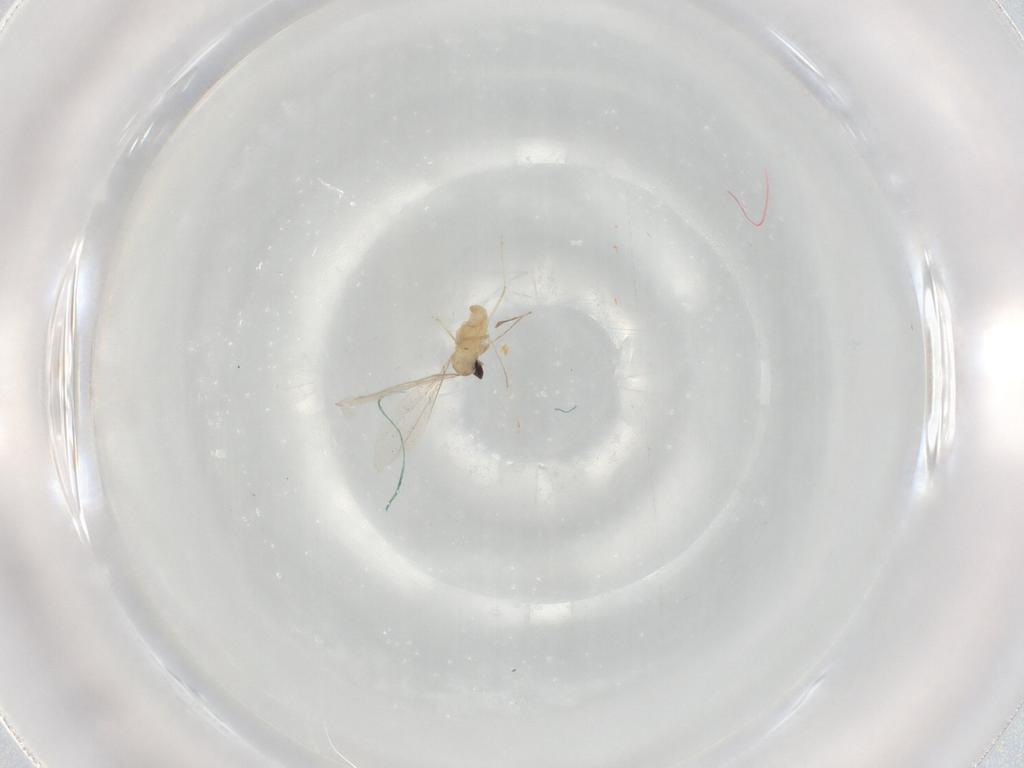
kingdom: Animalia
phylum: Arthropoda
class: Insecta
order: Diptera
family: Cecidomyiidae
